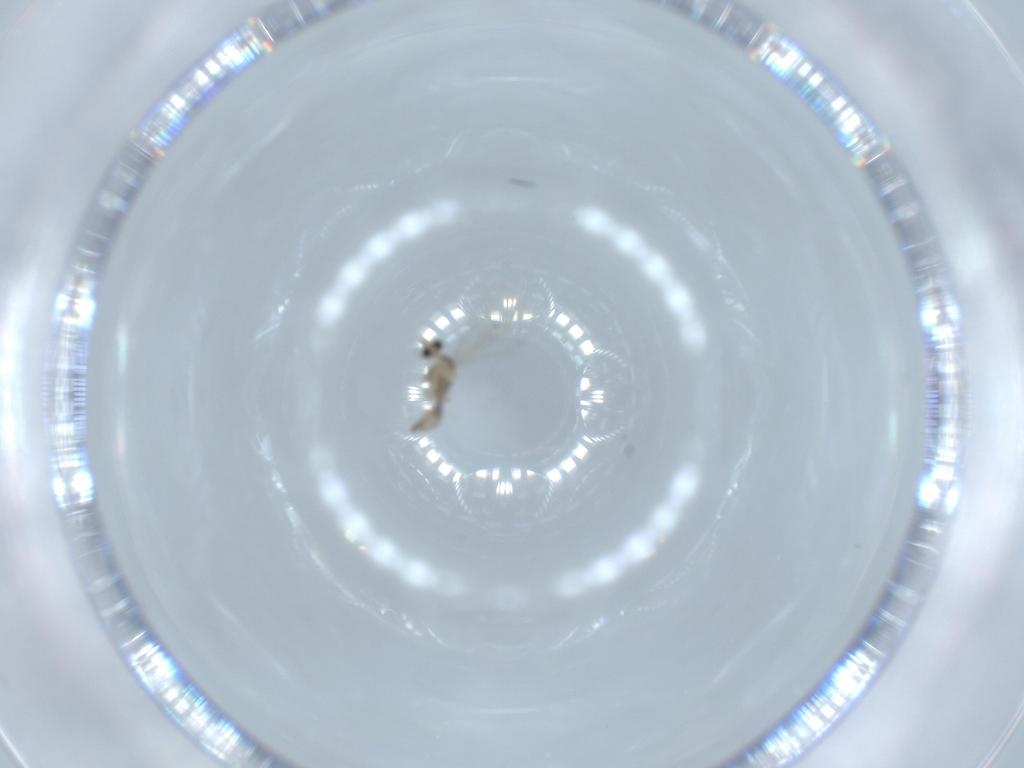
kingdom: Animalia
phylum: Arthropoda
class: Insecta
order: Diptera
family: Cecidomyiidae
